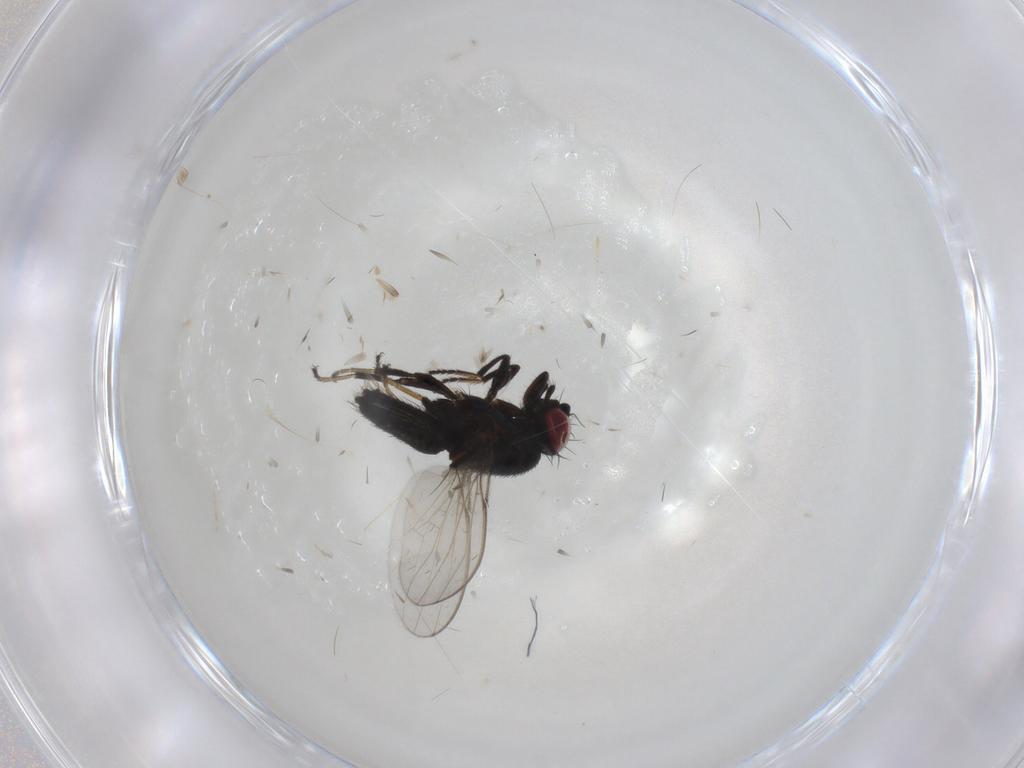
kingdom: Animalia
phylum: Arthropoda
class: Insecta
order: Diptera
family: Milichiidae
